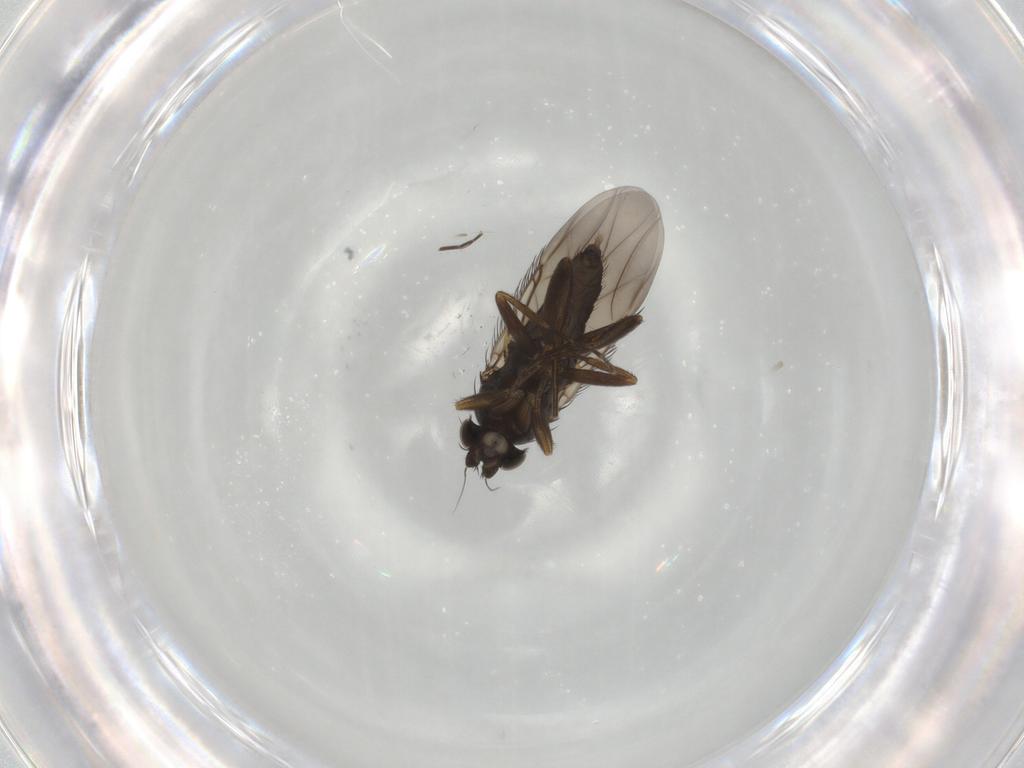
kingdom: Animalia
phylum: Arthropoda
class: Insecta
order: Diptera
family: Phoridae
